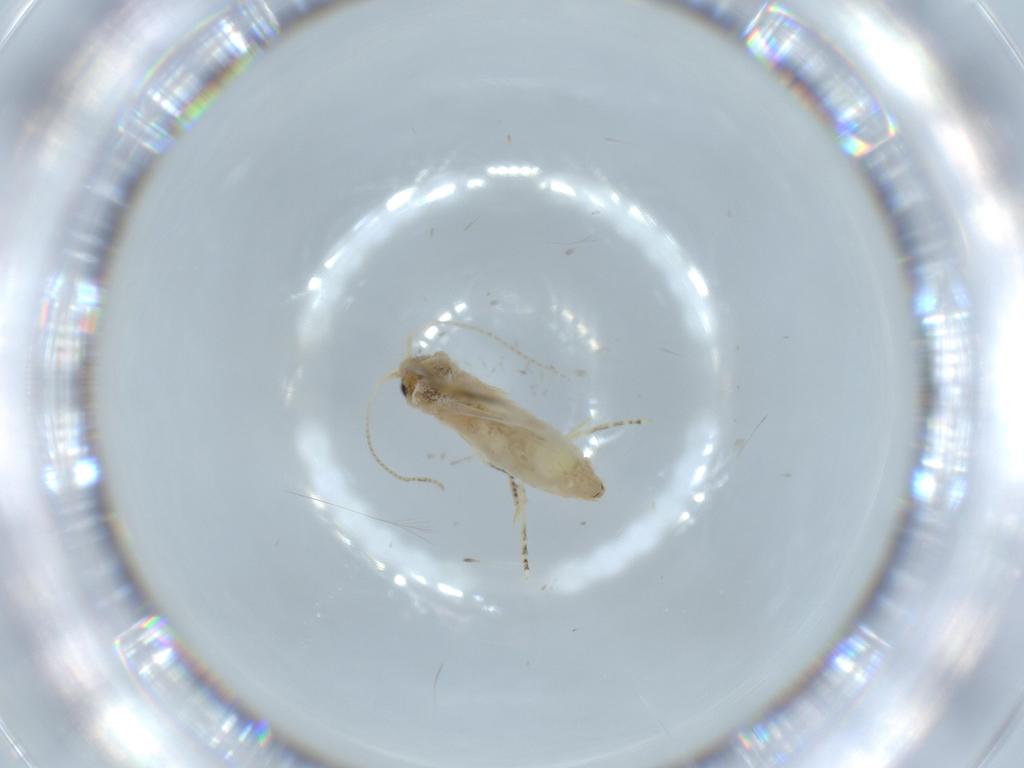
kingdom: Animalia
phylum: Arthropoda
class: Insecta
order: Lepidoptera
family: Bucculatricidae
